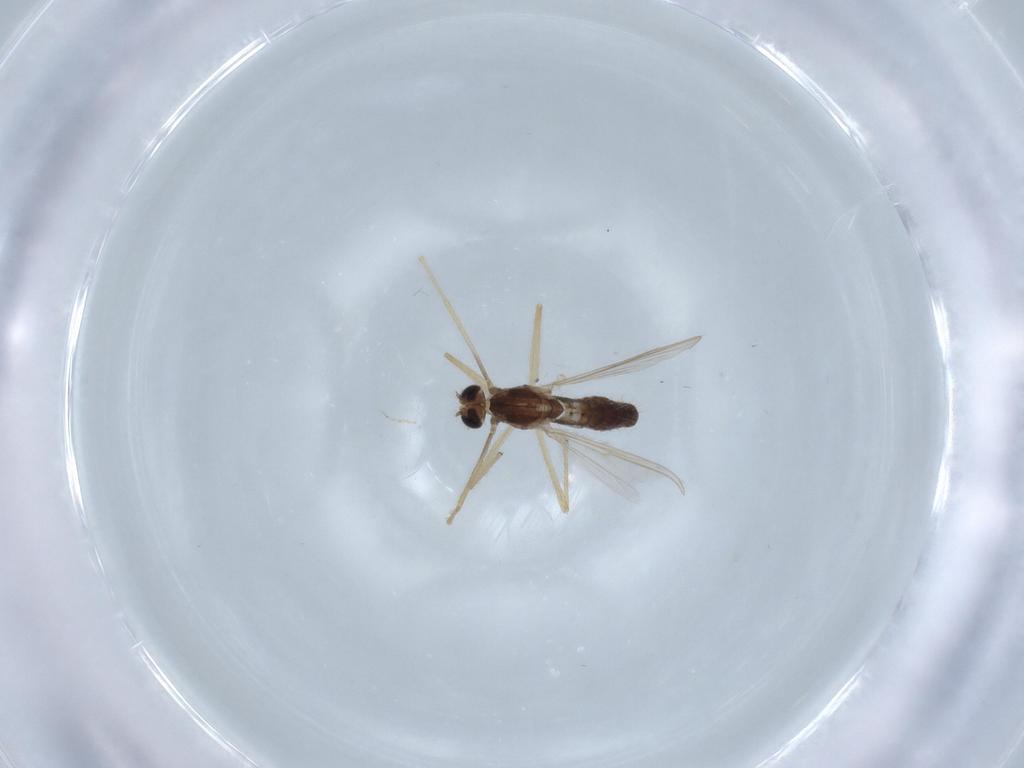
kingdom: Animalia
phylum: Arthropoda
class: Insecta
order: Diptera
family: Chironomidae
